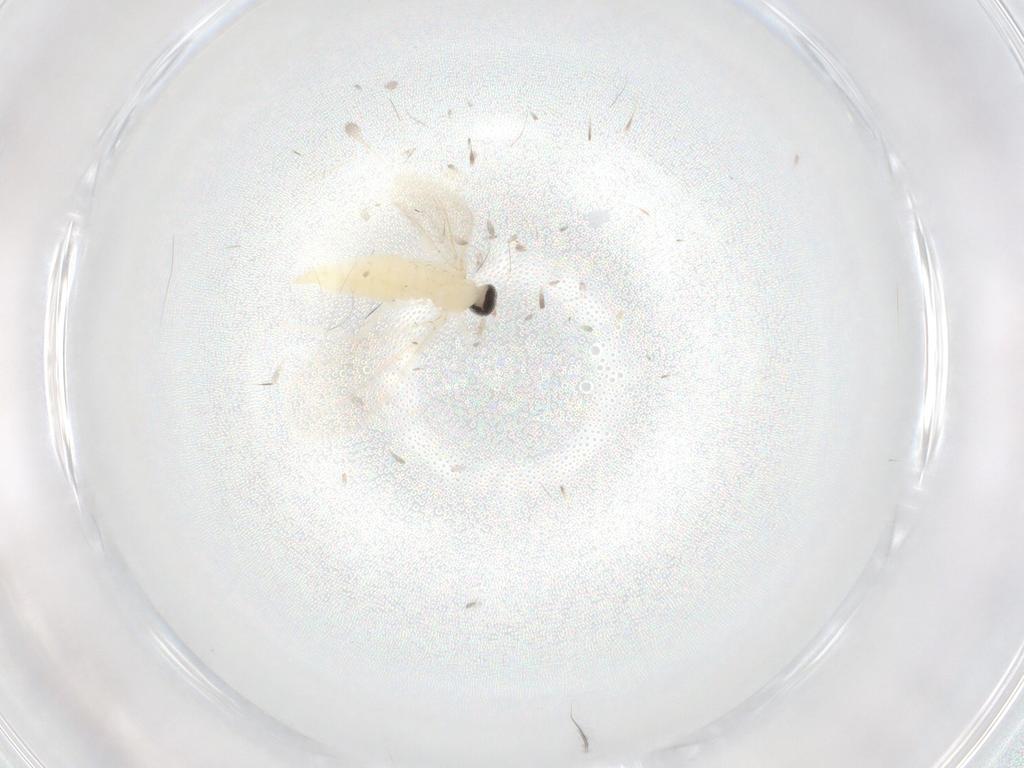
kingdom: Animalia
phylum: Arthropoda
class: Insecta
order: Diptera
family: Cecidomyiidae
